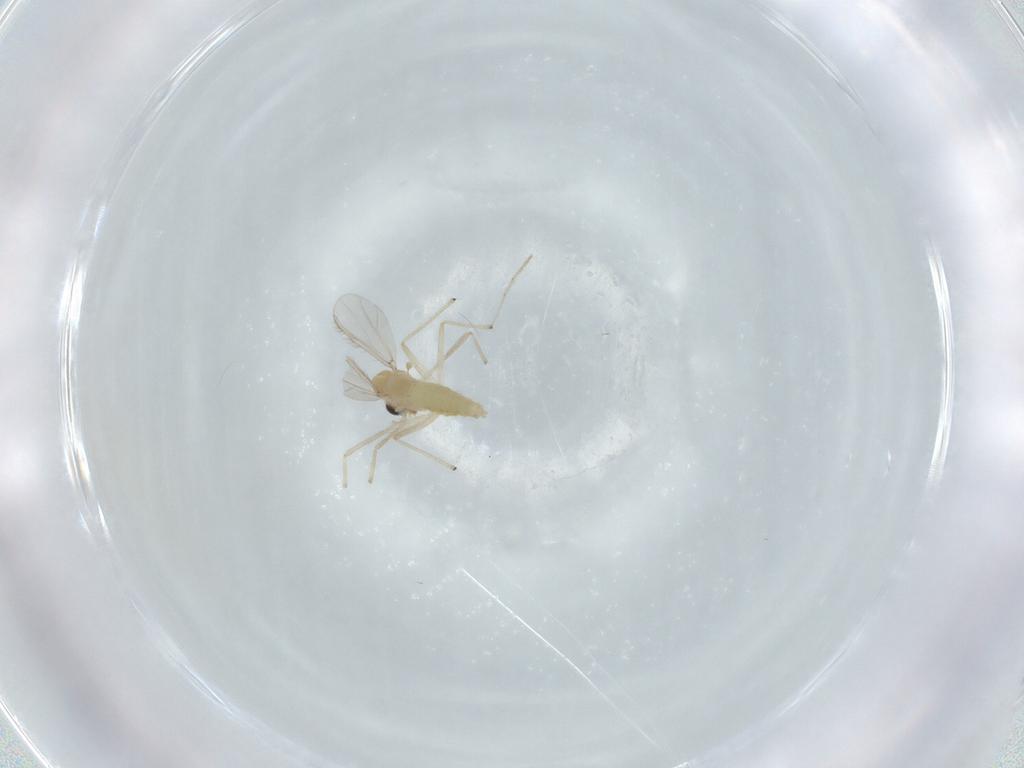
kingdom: Animalia
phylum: Arthropoda
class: Insecta
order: Diptera
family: Chironomidae
